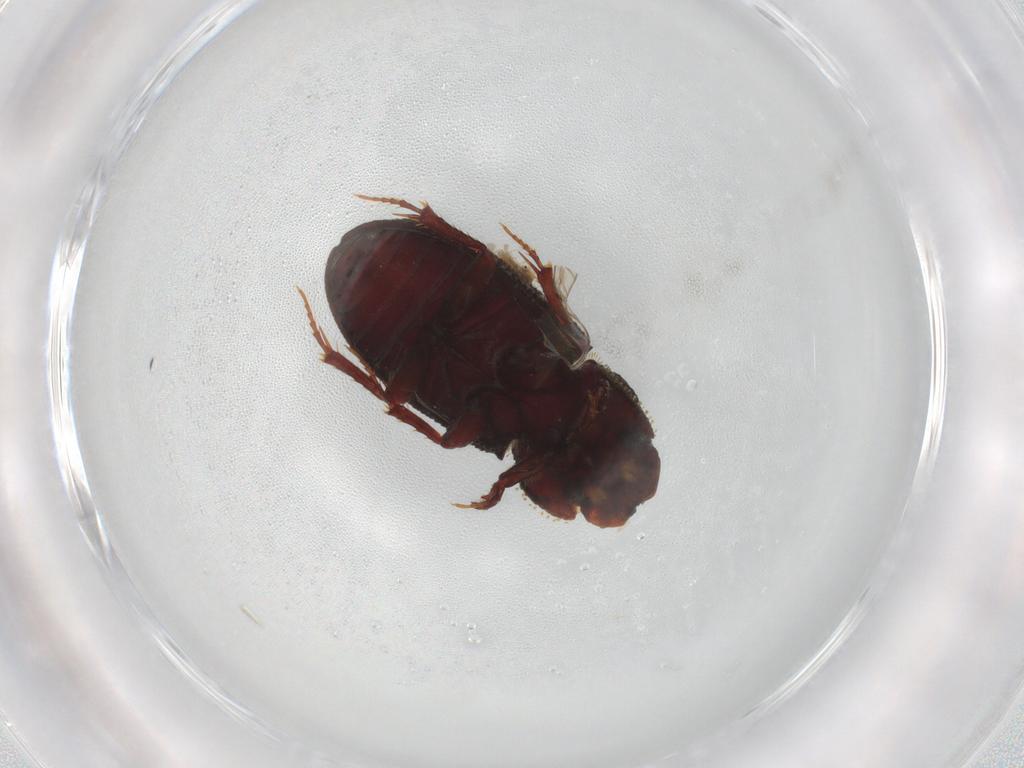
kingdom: Animalia
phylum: Arthropoda
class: Insecta
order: Coleoptera
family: Carabidae
